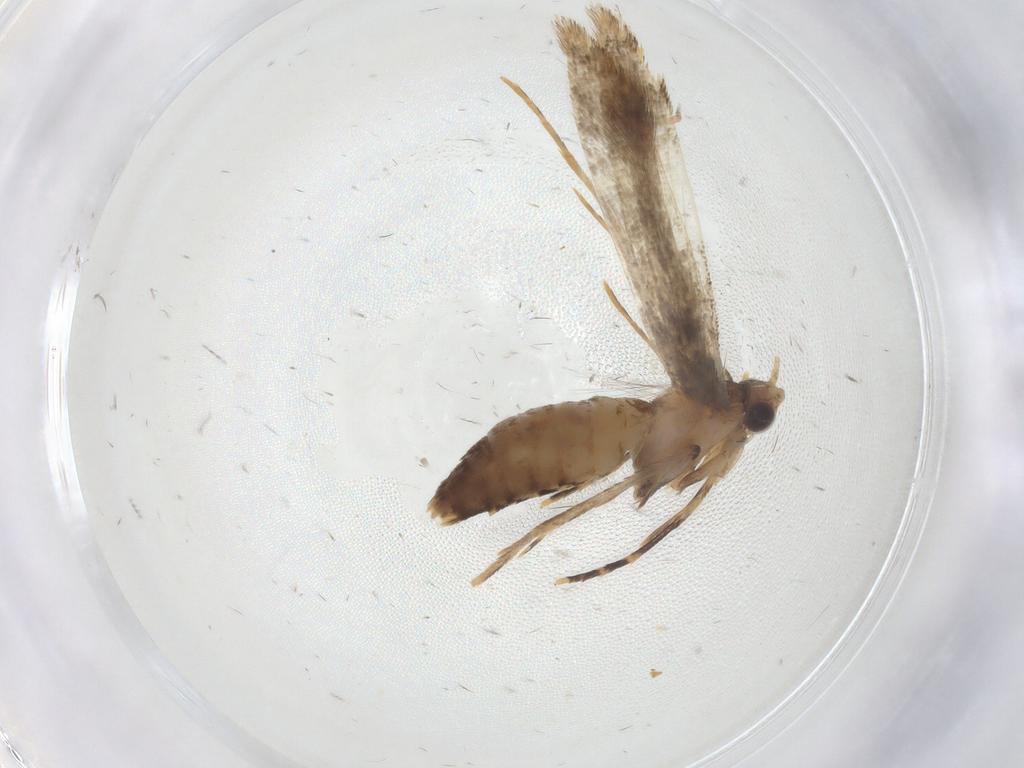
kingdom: Animalia
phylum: Arthropoda
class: Insecta
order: Lepidoptera
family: Tineidae
